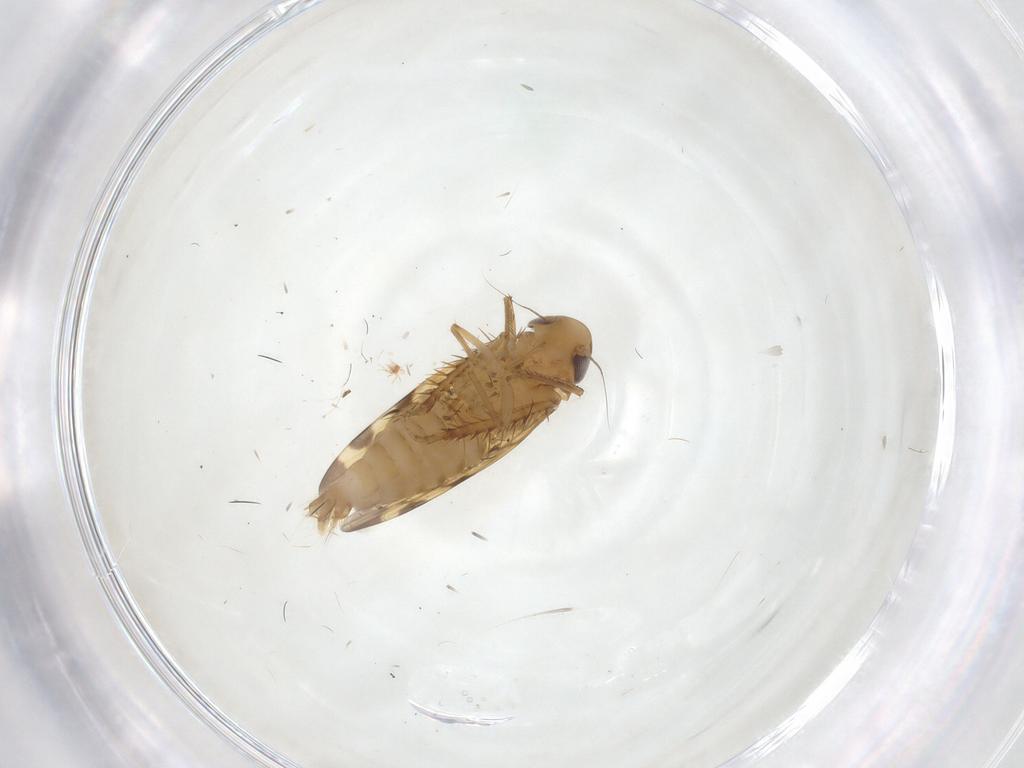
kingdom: Animalia
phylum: Arthropoda
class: Insecta
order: Hemiptera
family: Cicadellidae
